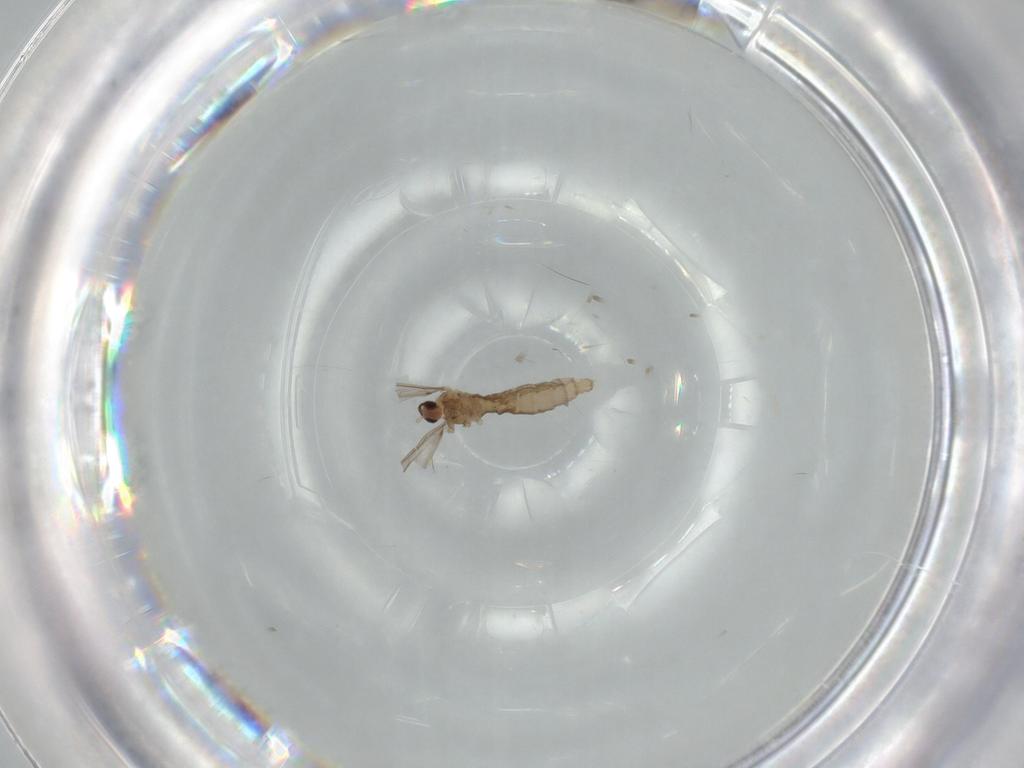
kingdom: Animalia
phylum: Arthropoda
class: Insecta
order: Diptera
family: Cecidomyiidae
